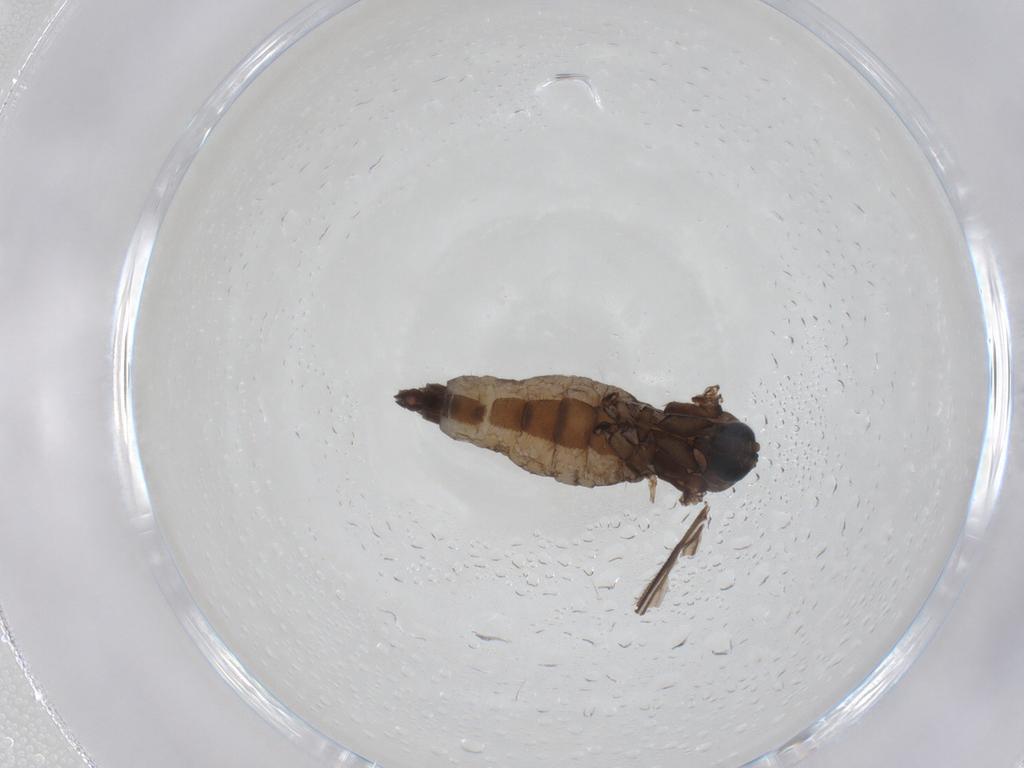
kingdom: Animalia
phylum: Arthropoda
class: Insecta
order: Diptera
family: Sciaridae
